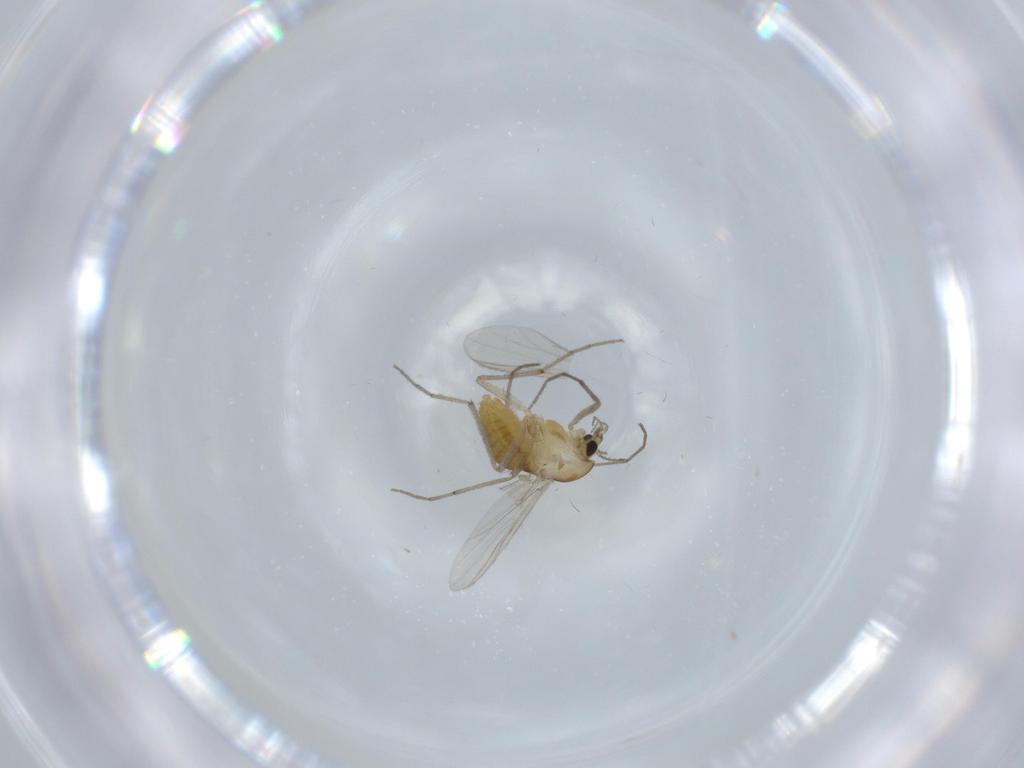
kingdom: Animalia
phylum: Arthropoda
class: Insecta
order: Diptera
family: Chironomidae
